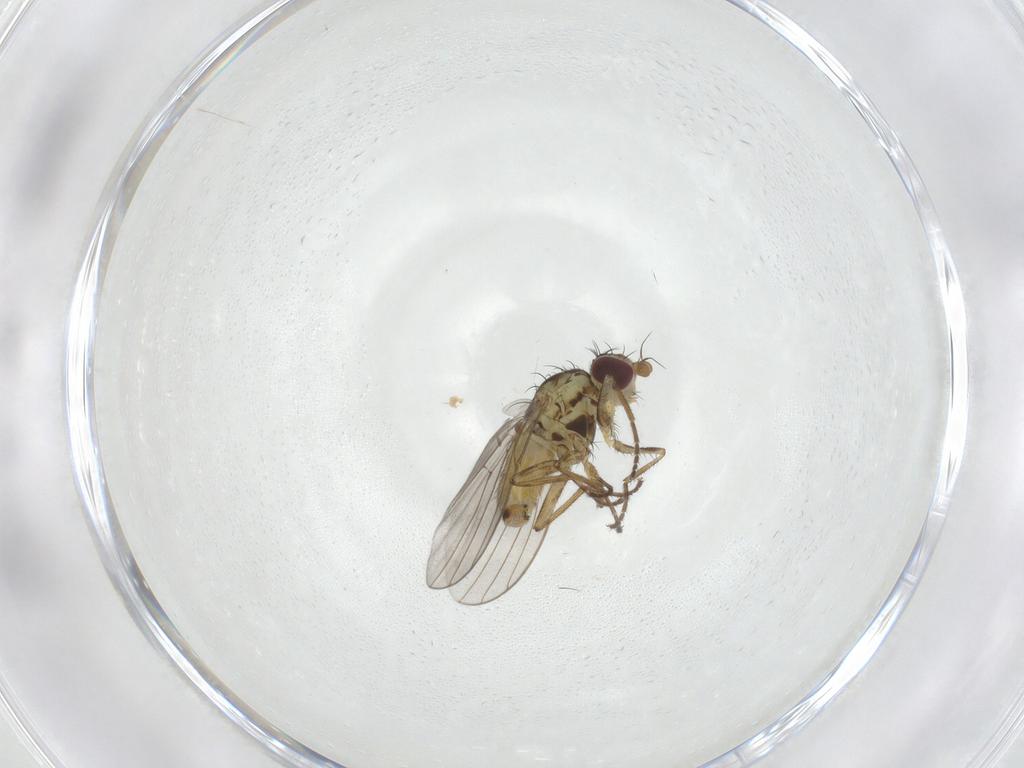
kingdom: Animalia
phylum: Arthropoda
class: Insecta
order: Diptera
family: Agromyzidae
